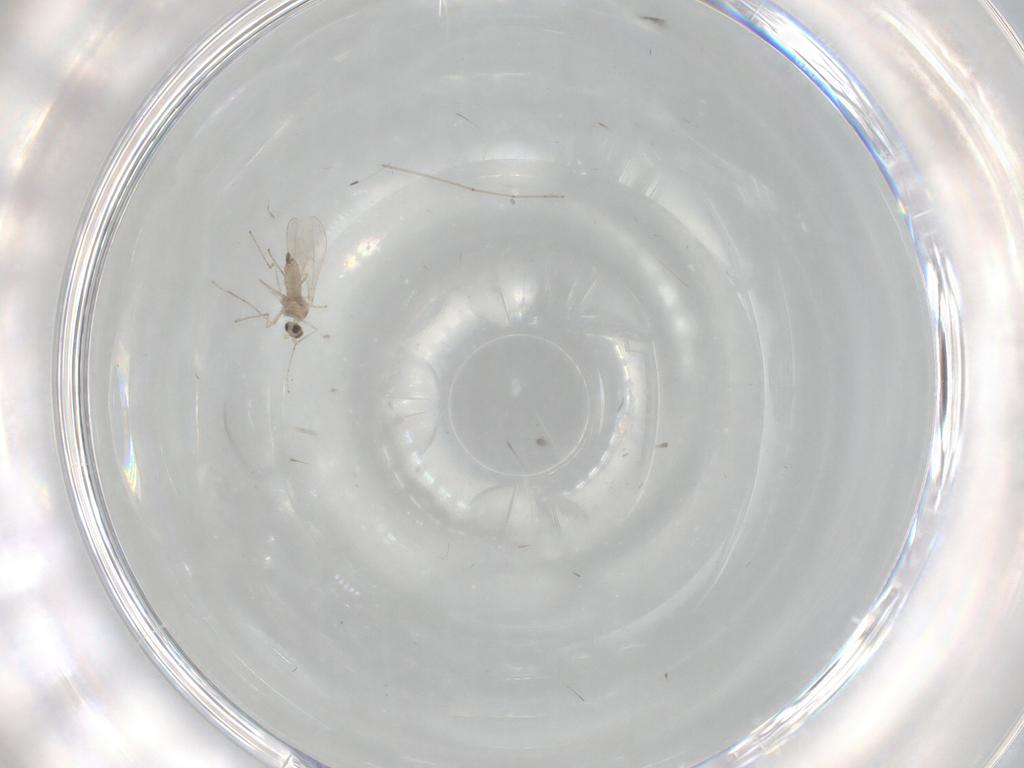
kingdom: Animalia
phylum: Arthropoda
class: Insecta
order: Diptera
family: Cecidomyiidae
